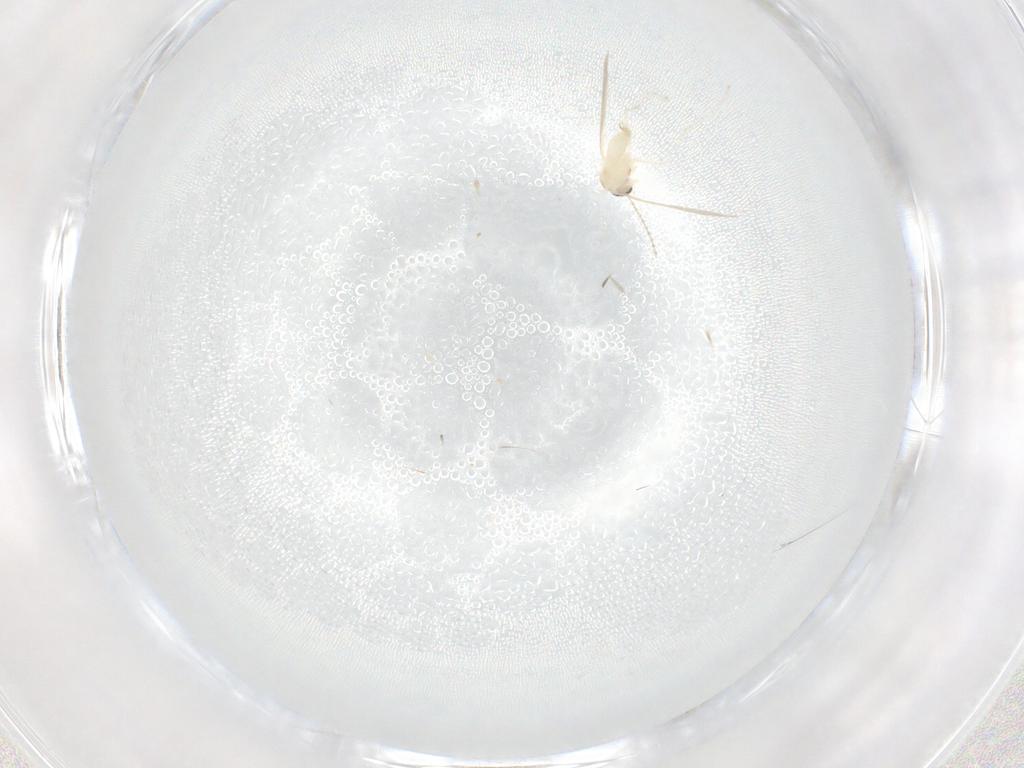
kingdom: Animalia
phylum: Arthropoda
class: Insecta
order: Diptera
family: Cecidomyiidae
